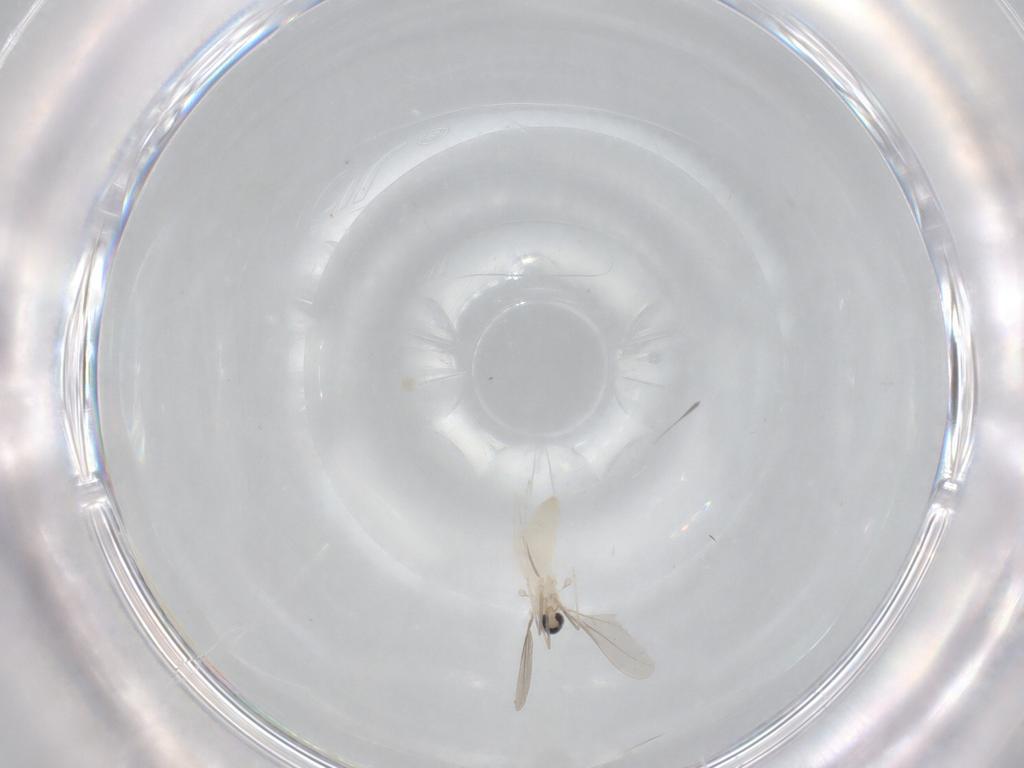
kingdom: Animalia
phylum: Arthropoda
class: Insecta
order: Diptera
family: Cecidomyiidae
